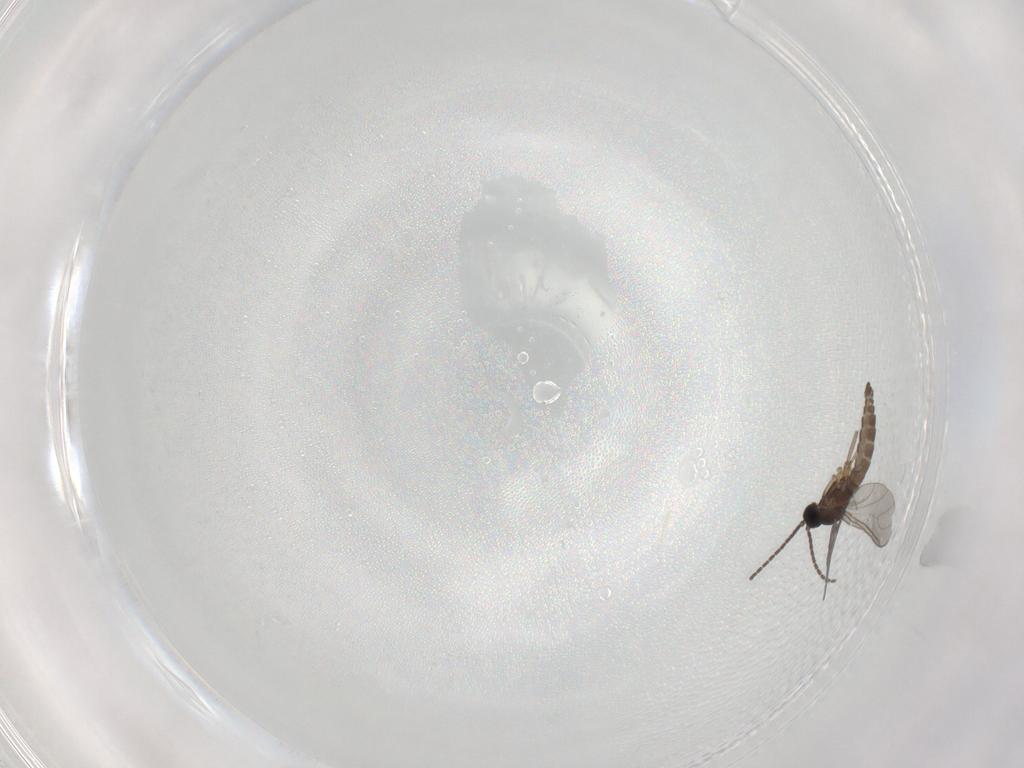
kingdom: Animalia
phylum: Arthropoda
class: Insecta
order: Diptera
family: Sciaridae
